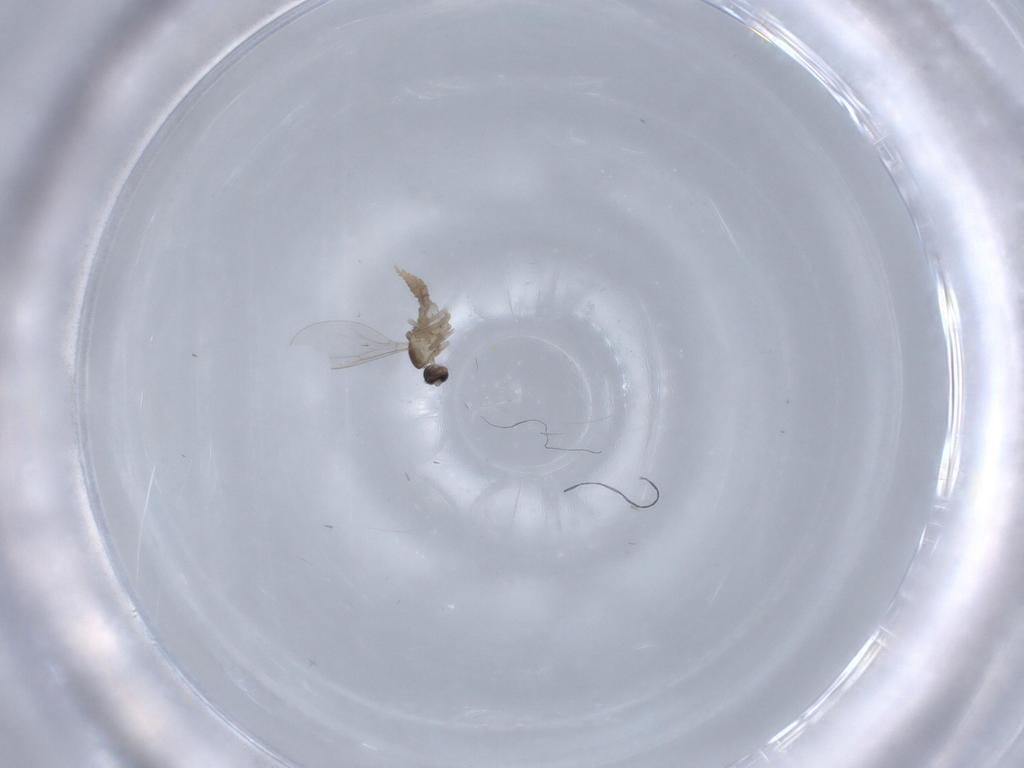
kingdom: Animalia
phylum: Arthropoda
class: Insecta
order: Diptera
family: Cecidomyiidae
